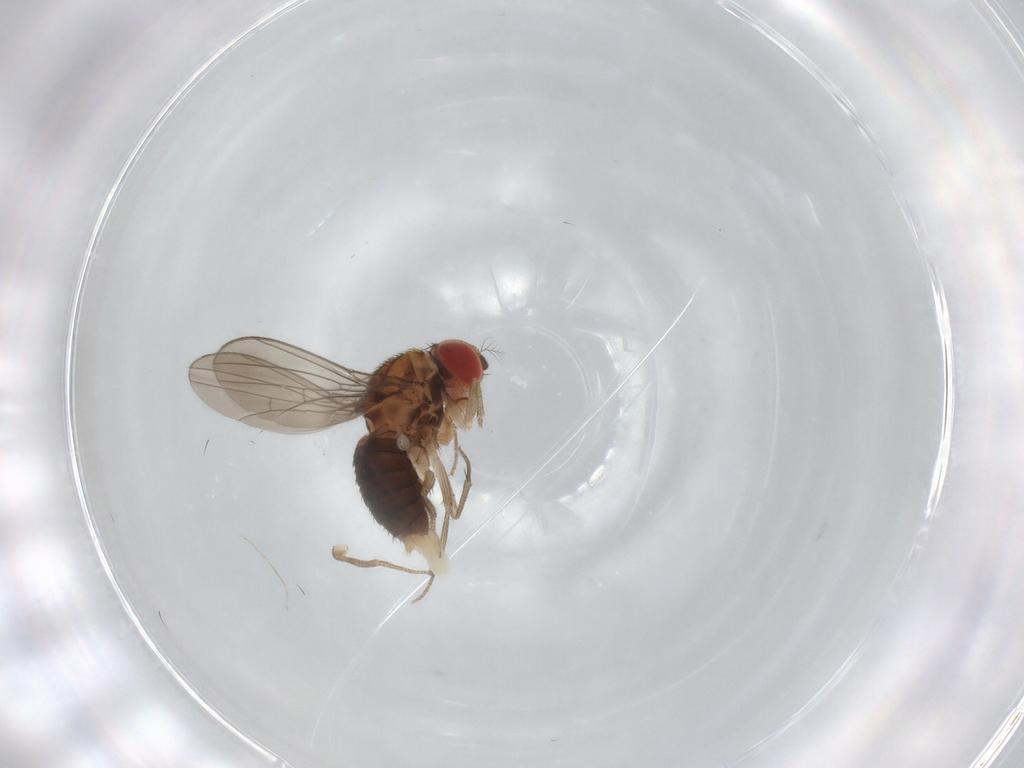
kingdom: Animalia
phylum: Arthropoda
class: Insecta
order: Diptera
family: Drosophilidae
